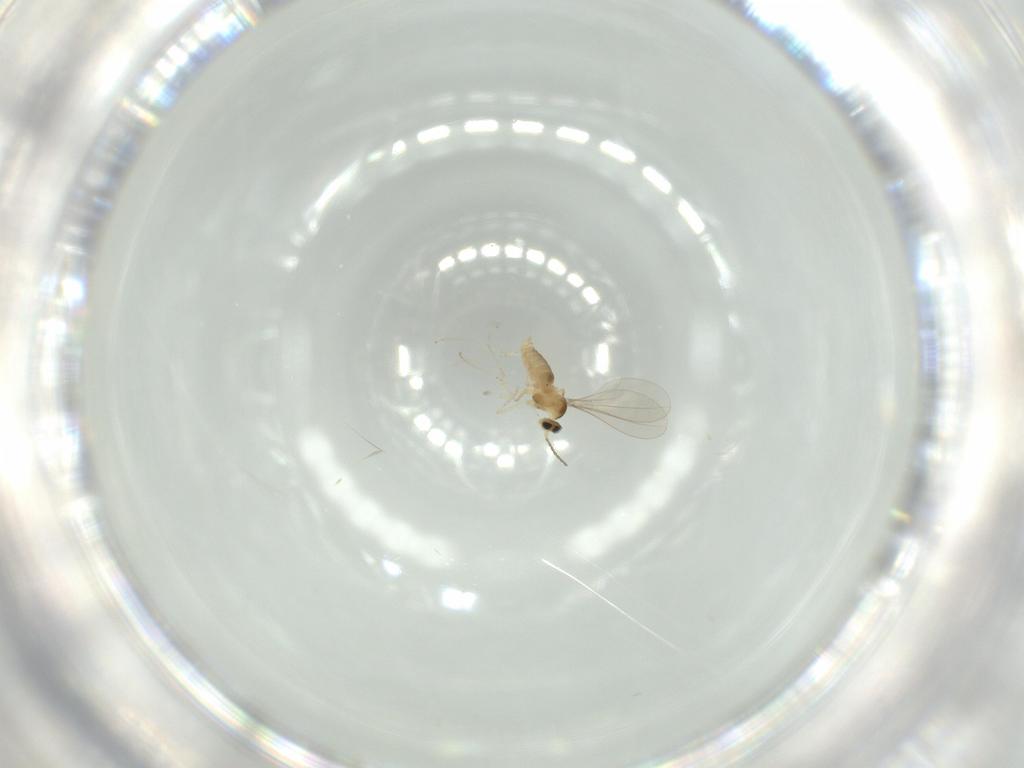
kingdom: Animalia
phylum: Arthropoda
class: Insecta
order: Diptera
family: Cecidomyiidae
